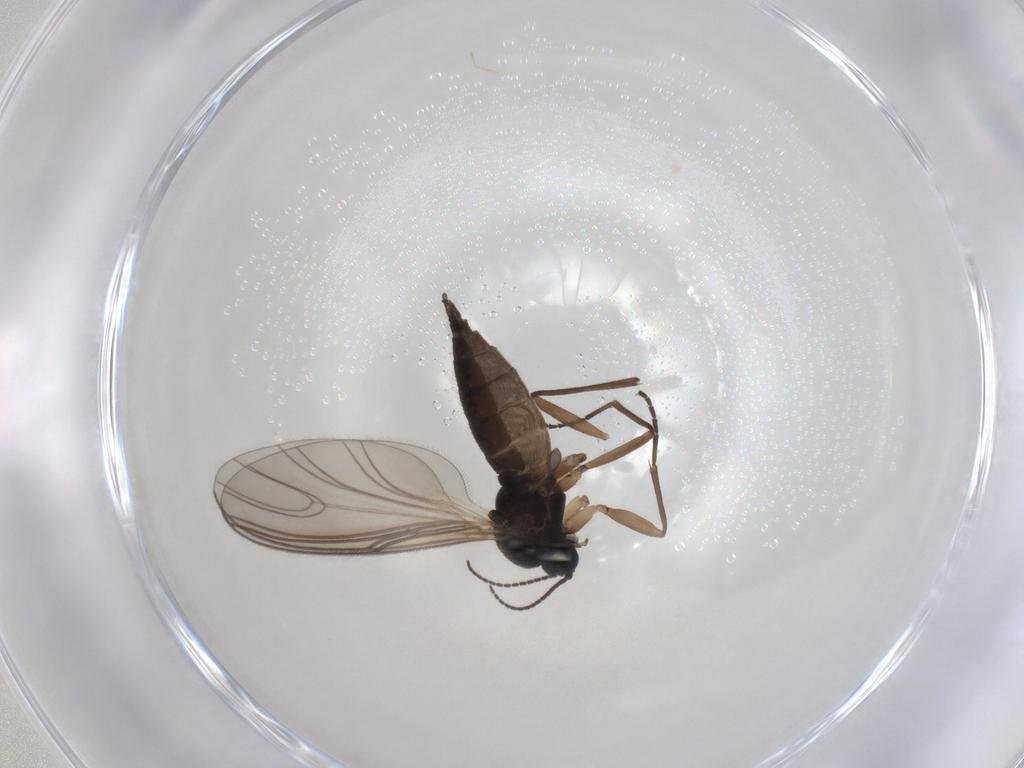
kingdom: Animalia
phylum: Arthropoda
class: Insecta
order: Diptera
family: Sciaridae
